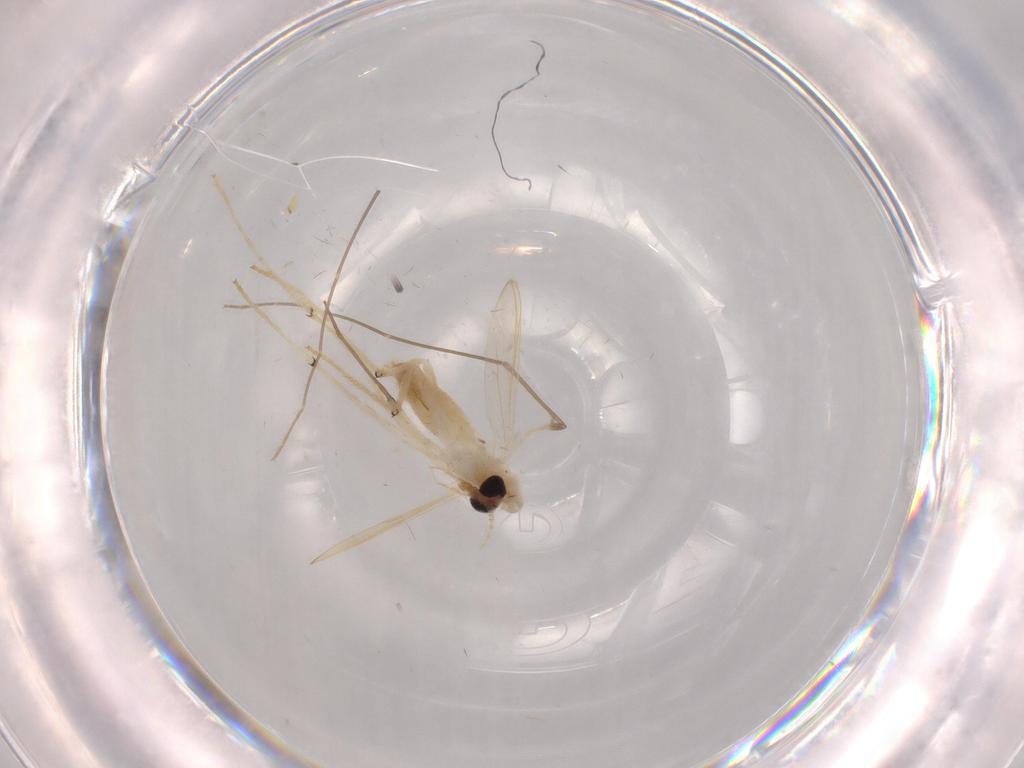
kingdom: Animalia
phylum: Arthropoda
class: Insecta
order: Diptera
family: Chironomidae
